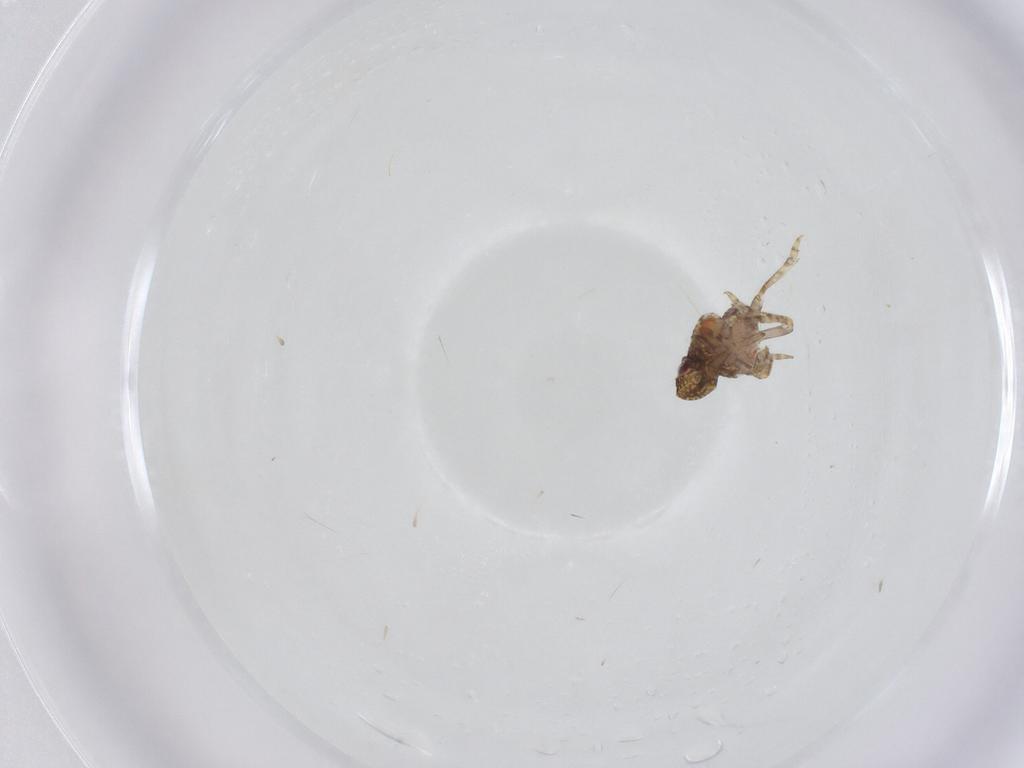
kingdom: Animalia
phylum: Arthropoda
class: Insecta
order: Hemiptera
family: Nogodinidae
